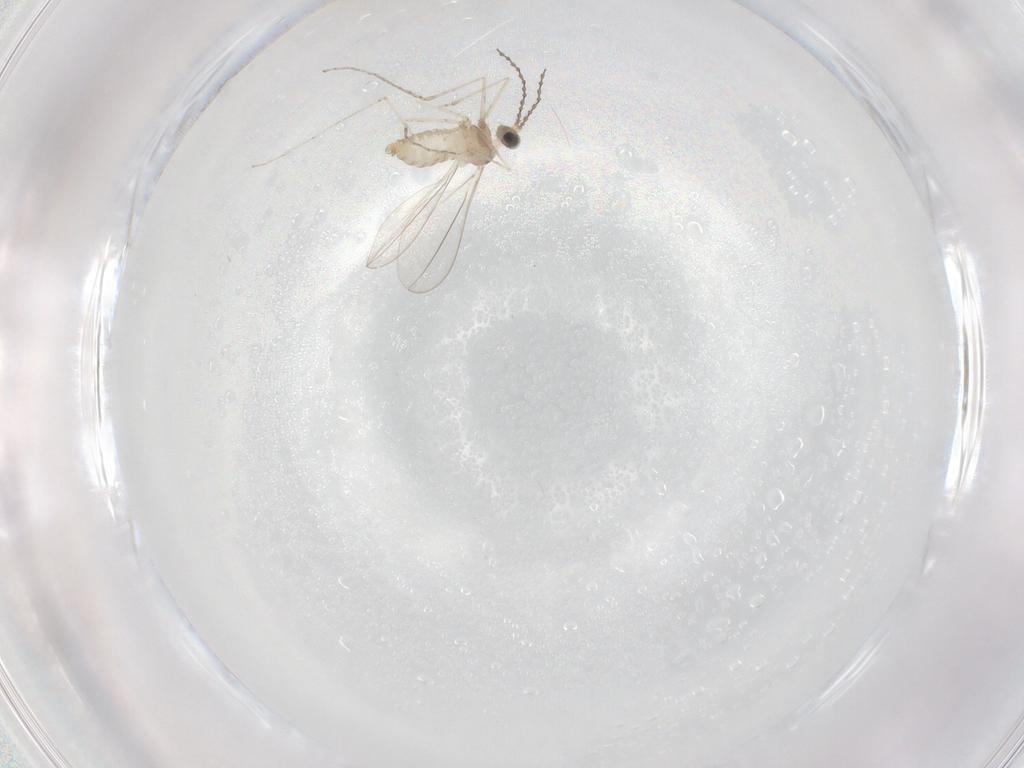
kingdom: Animalia
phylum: Arthropoda
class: Insecta
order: Diptera
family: Cecidomyiidae
